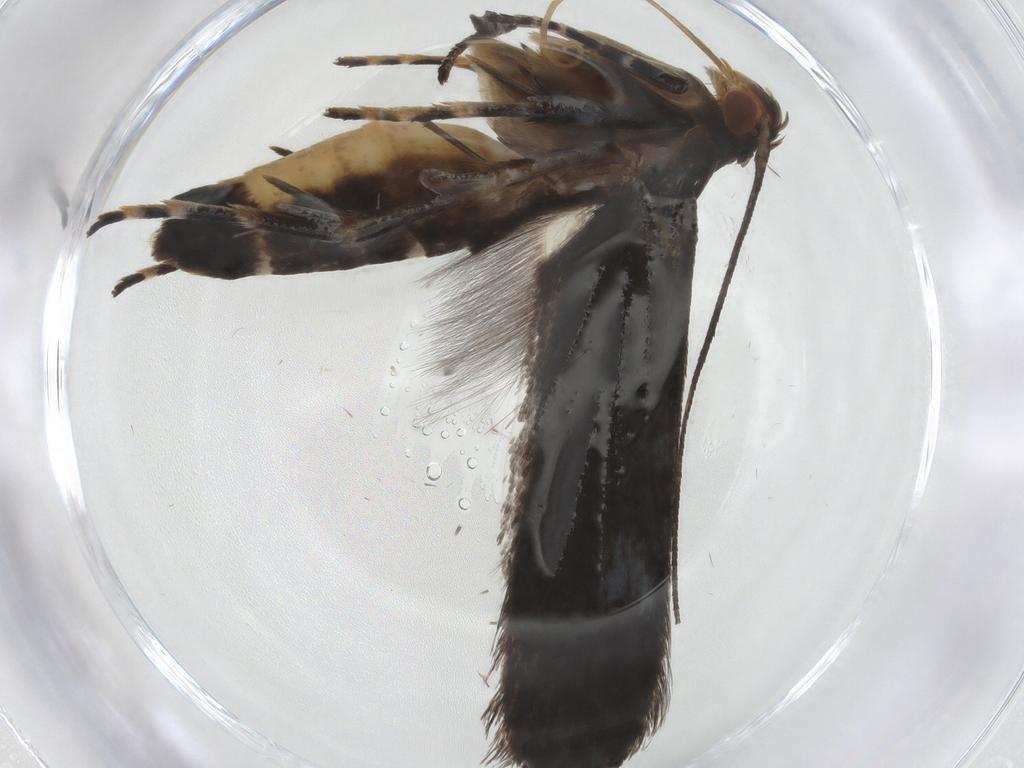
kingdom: Animalia
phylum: Arthropoda
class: Insecta
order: Lepidoptera
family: Gelechiidae
